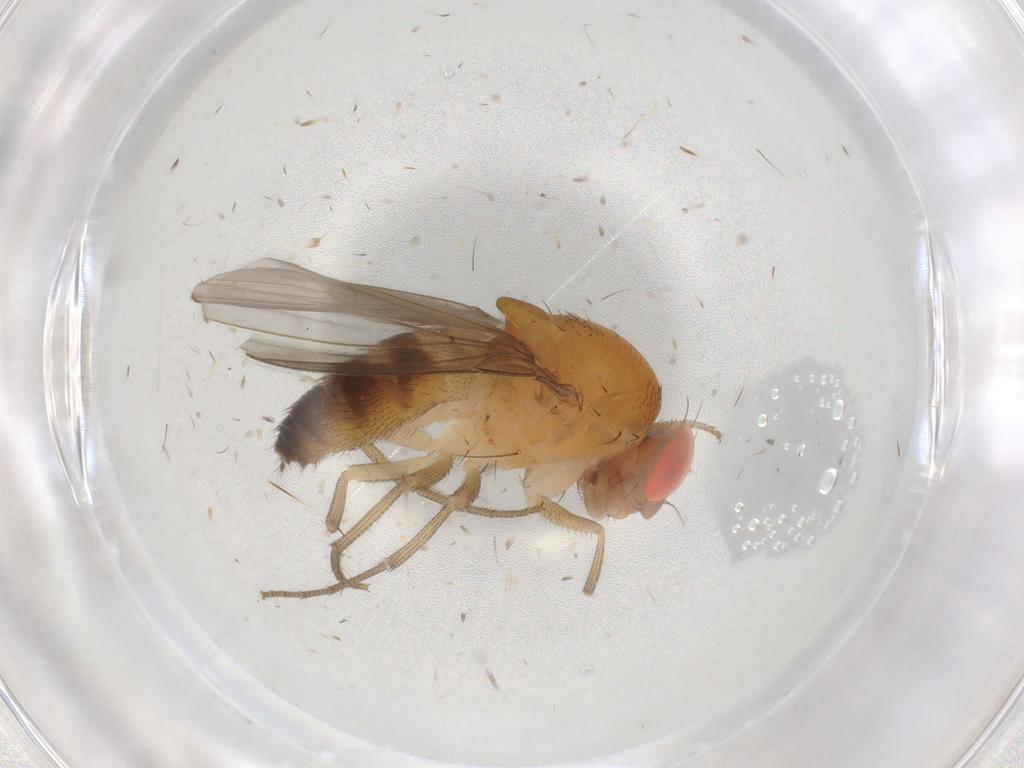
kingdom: Animalia
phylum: Arthropoda
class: Insecta
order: Diptera
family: Drosophilidae
